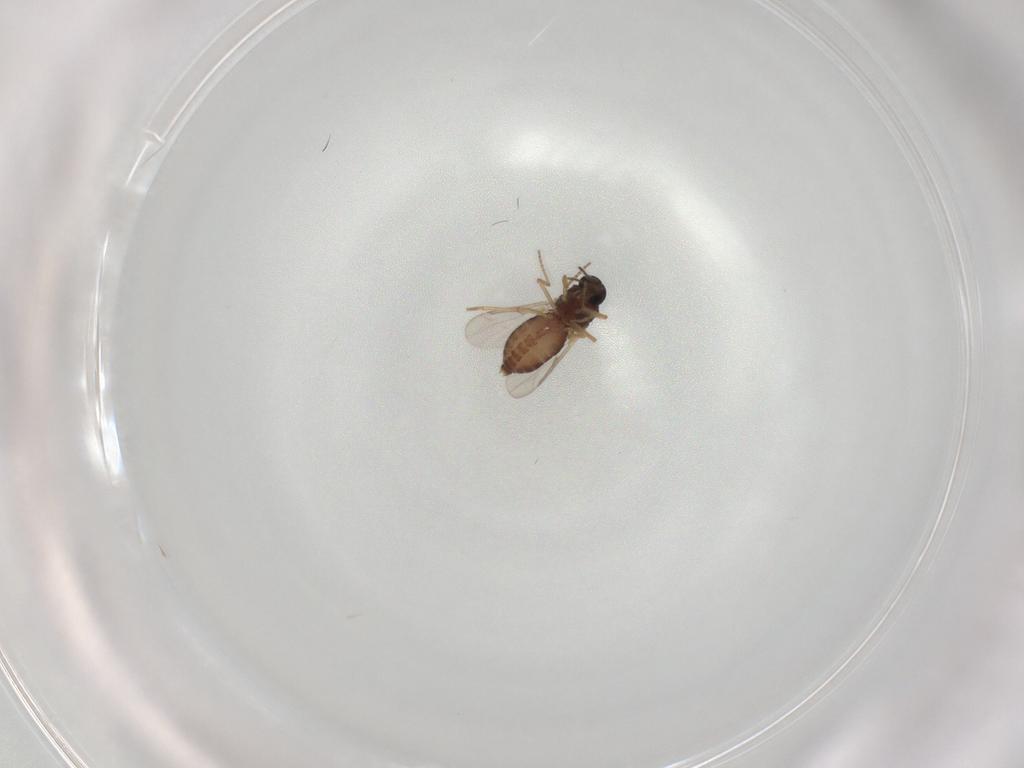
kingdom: Animalia
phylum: Arthropoda
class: Insecta
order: Diptera
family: Ceratopogonidae
